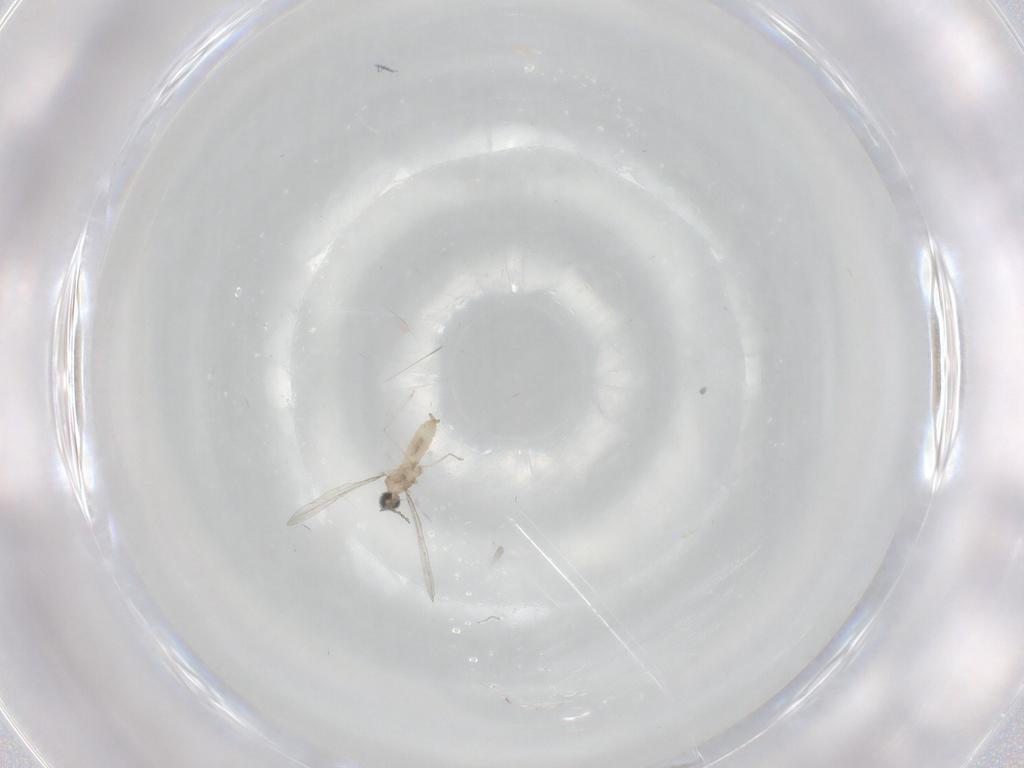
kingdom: Animalia
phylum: Arthropoda
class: Insecta
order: Diptera
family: Cecidomyiidae
